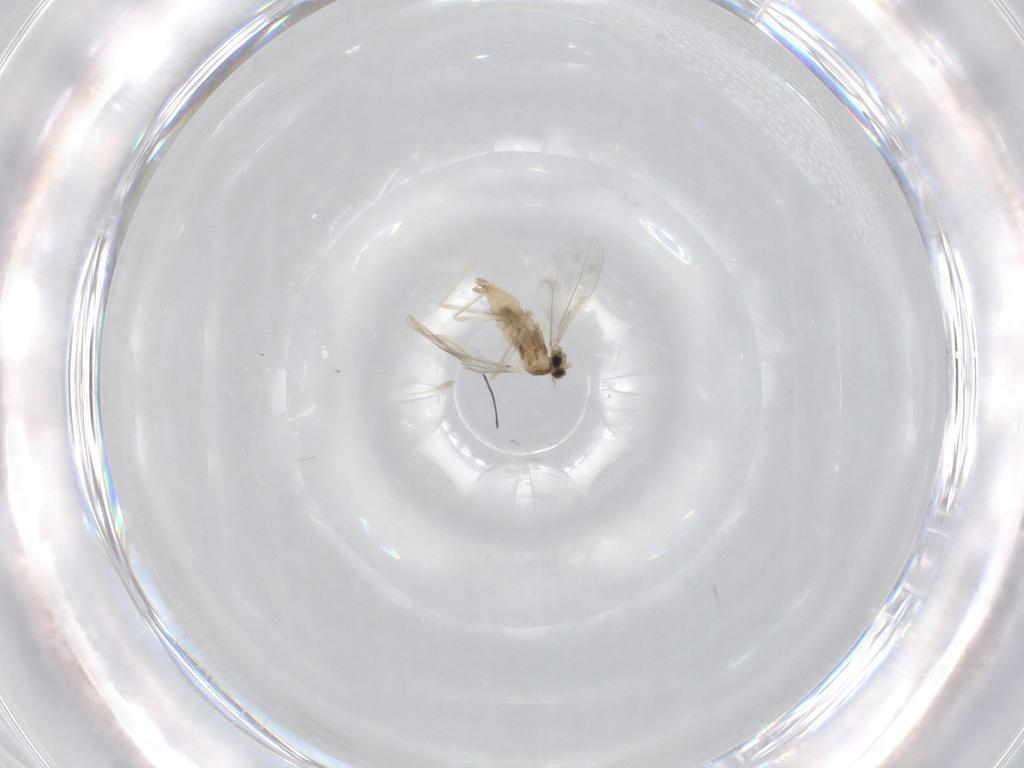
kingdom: Animalia
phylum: Arthropoda
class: Insecta
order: Diptera
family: Cecidomyiidae
